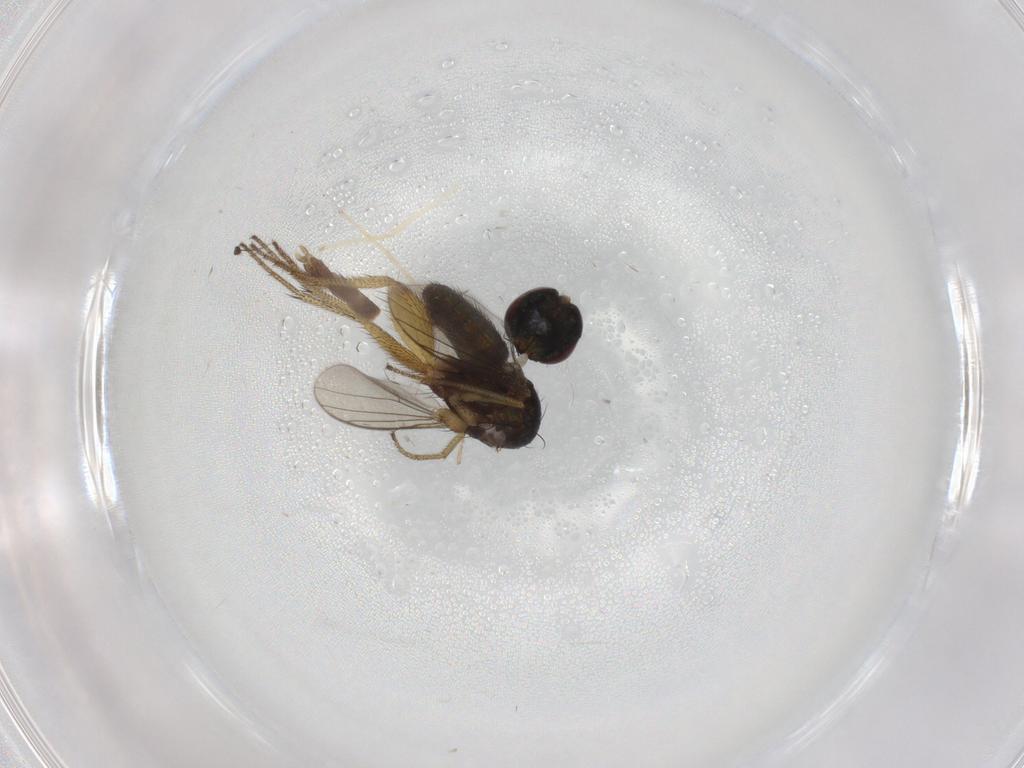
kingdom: Animalia
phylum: Arthropoda
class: Insecta
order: Diptera
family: Chironomidae
